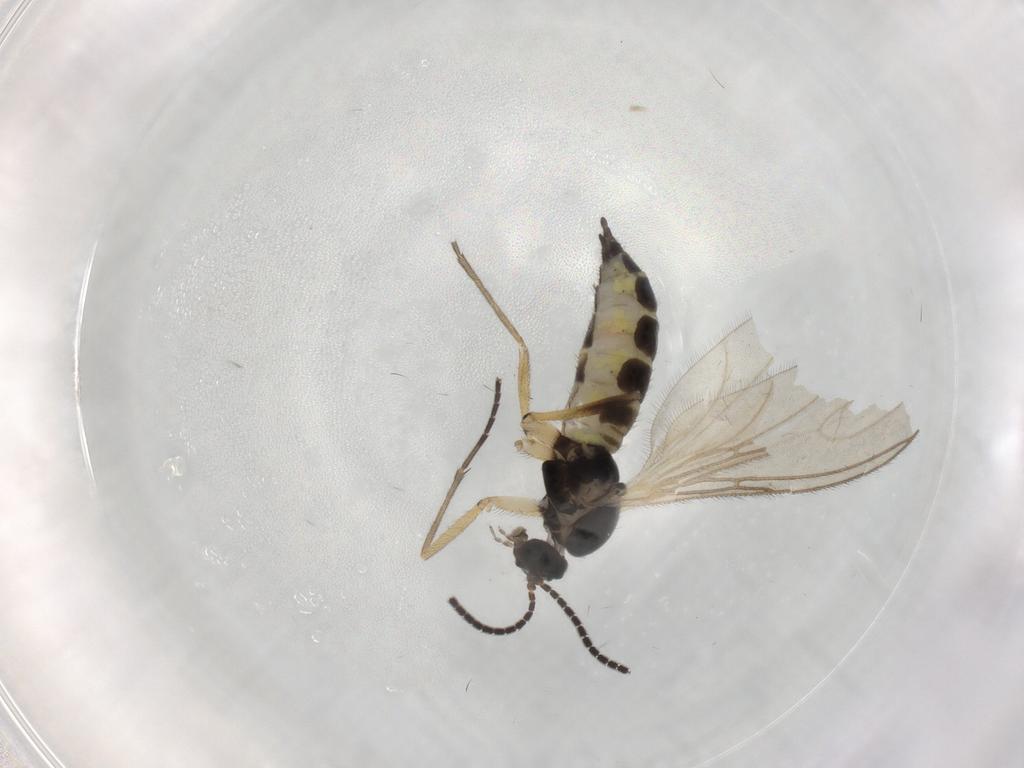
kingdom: Animalia
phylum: Arthropoda
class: Insecta
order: Diptera
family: Sciaridae
